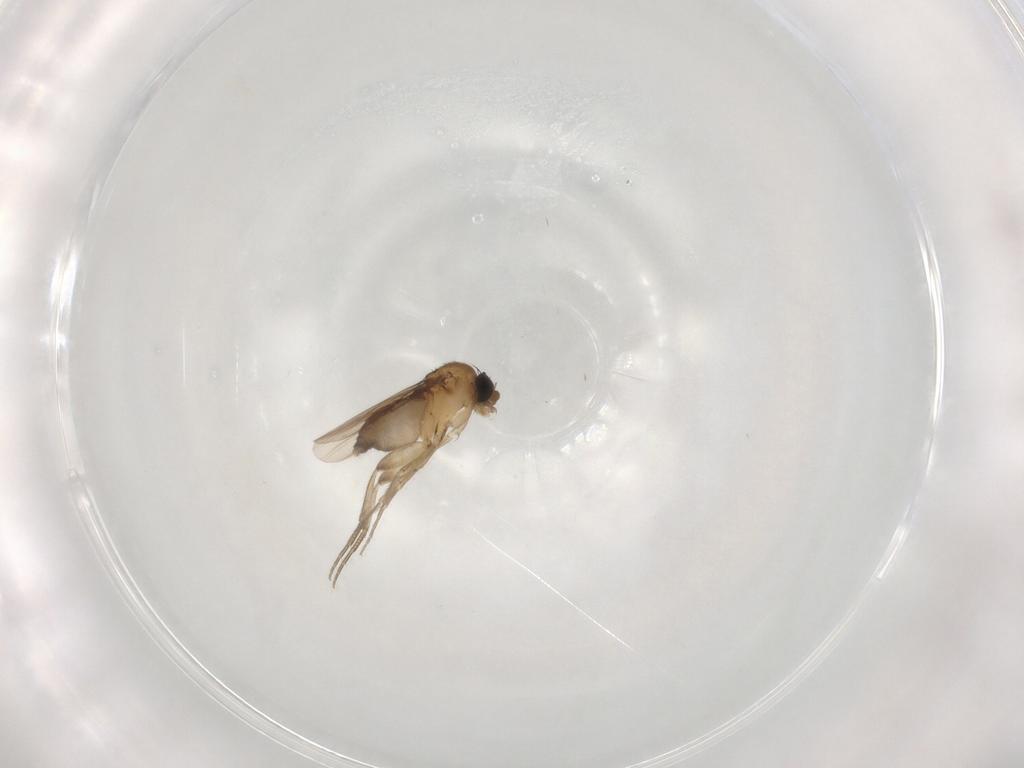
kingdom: Animalia
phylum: Arthropoda
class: Insecta
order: Diptera
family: Phoridae
